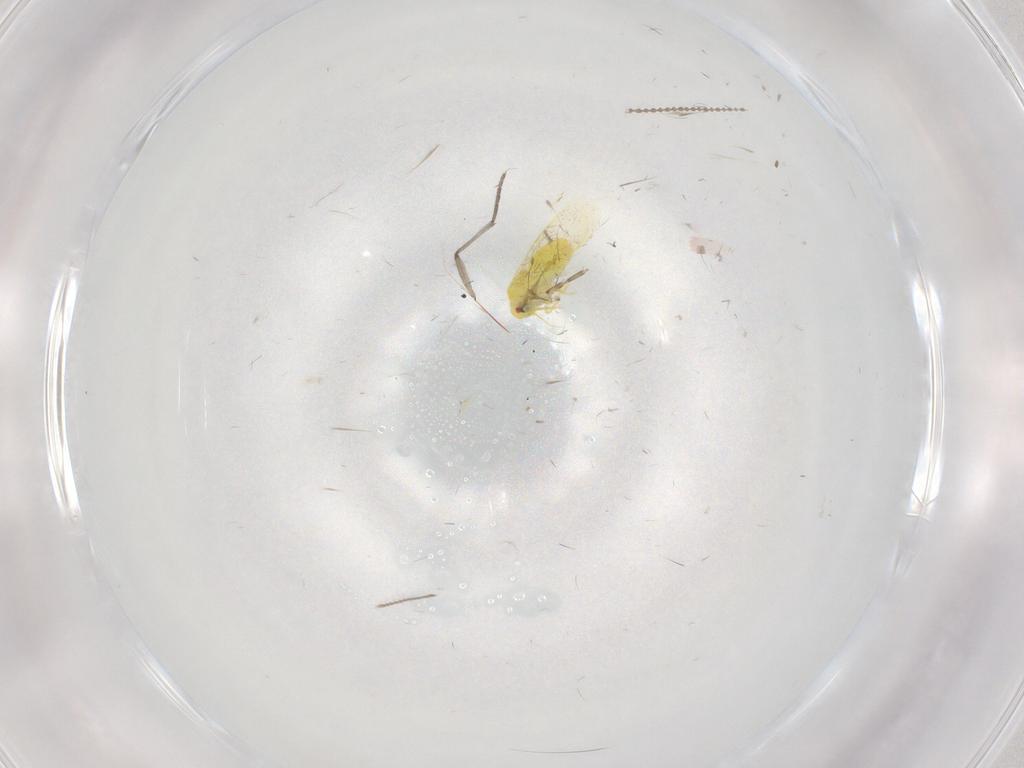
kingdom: Animalia
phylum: Arthropoda
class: Insecta
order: Hemiptera
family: Aleyrodidae
